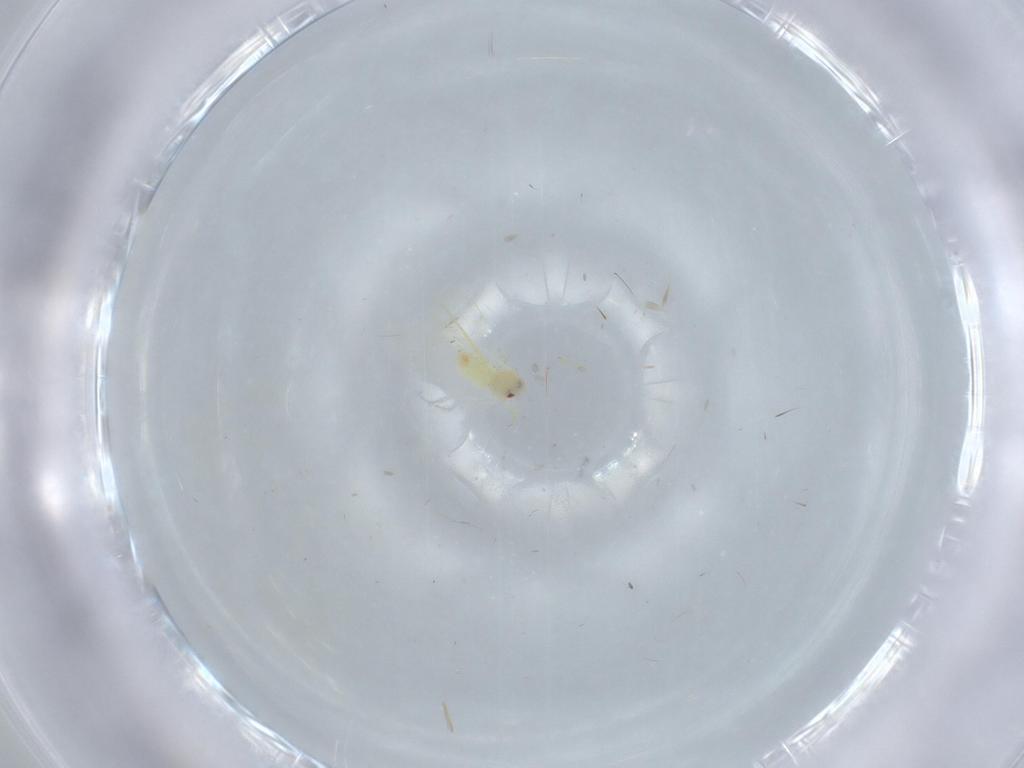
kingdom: Animalia
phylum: Arthropoda
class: Insecta
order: Hemiptera
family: Aleyrodidae
